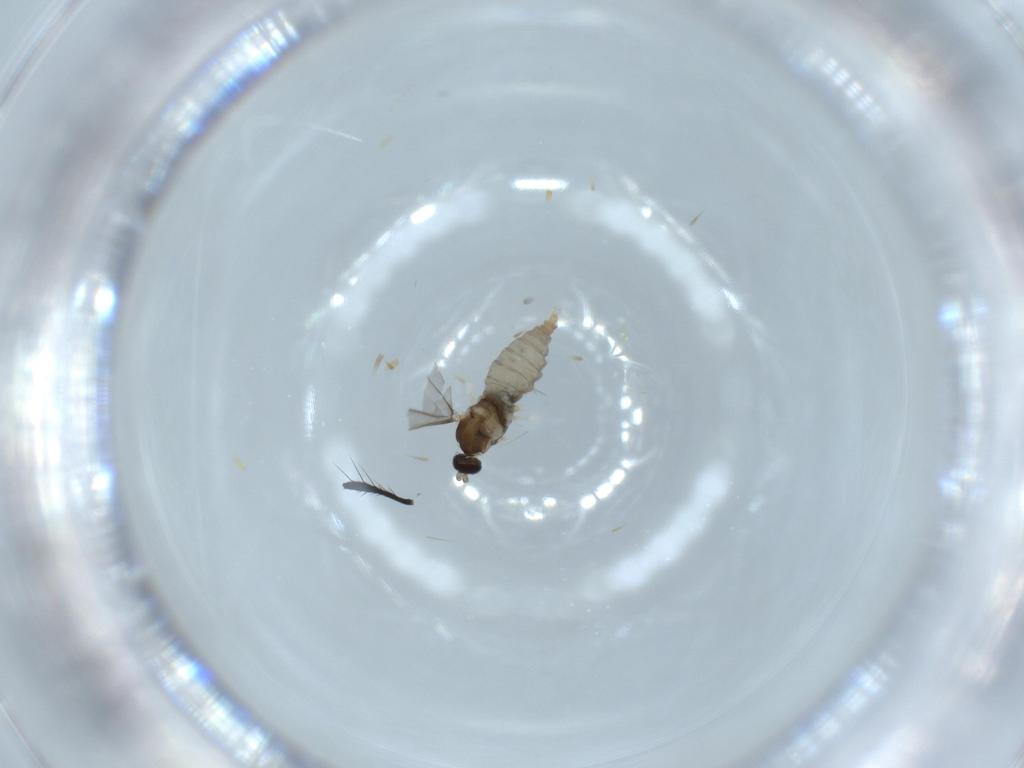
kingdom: Animalia
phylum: Arthropoda
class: Insecta
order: Diptera
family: Cecidomyiidae
